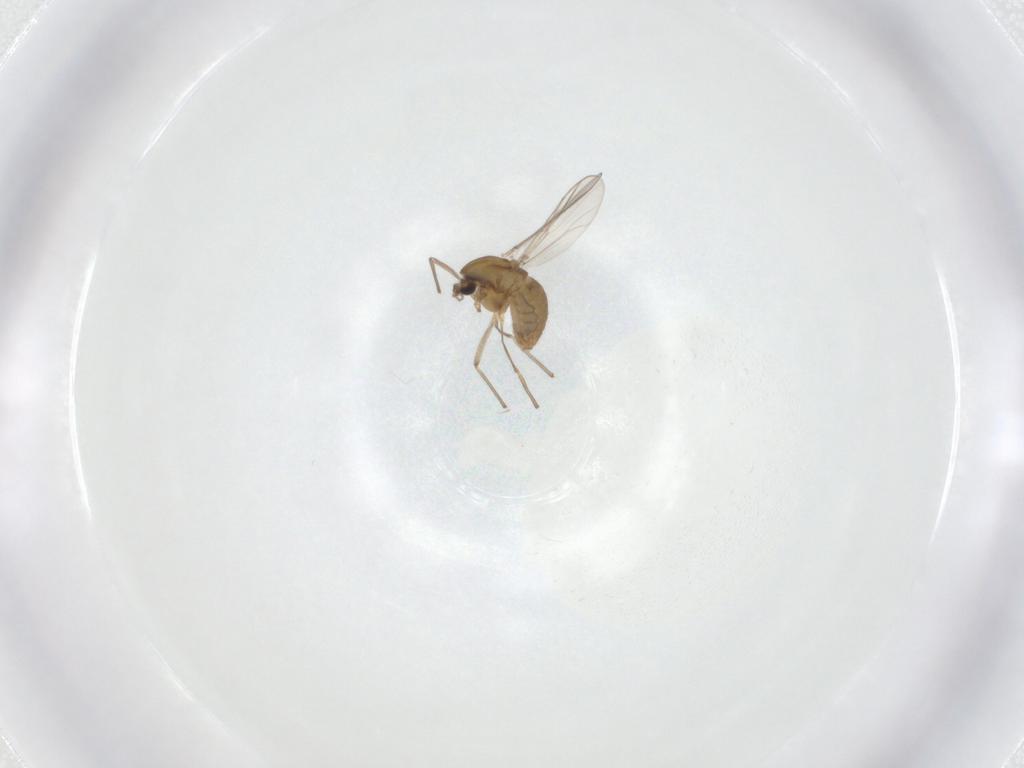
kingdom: Animalia
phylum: Arthropoda
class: Insecta
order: Diptera
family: Chironomidae
